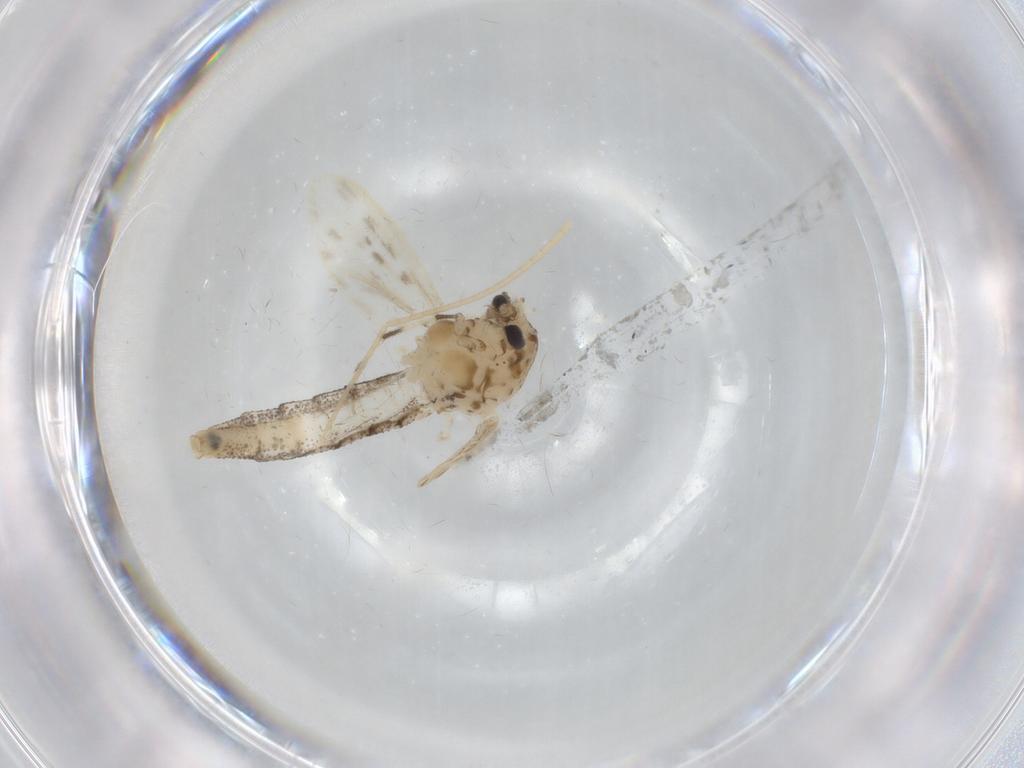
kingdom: Animalia
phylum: Arthropoda
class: Insecta
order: Diptera
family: Chaoboridae
